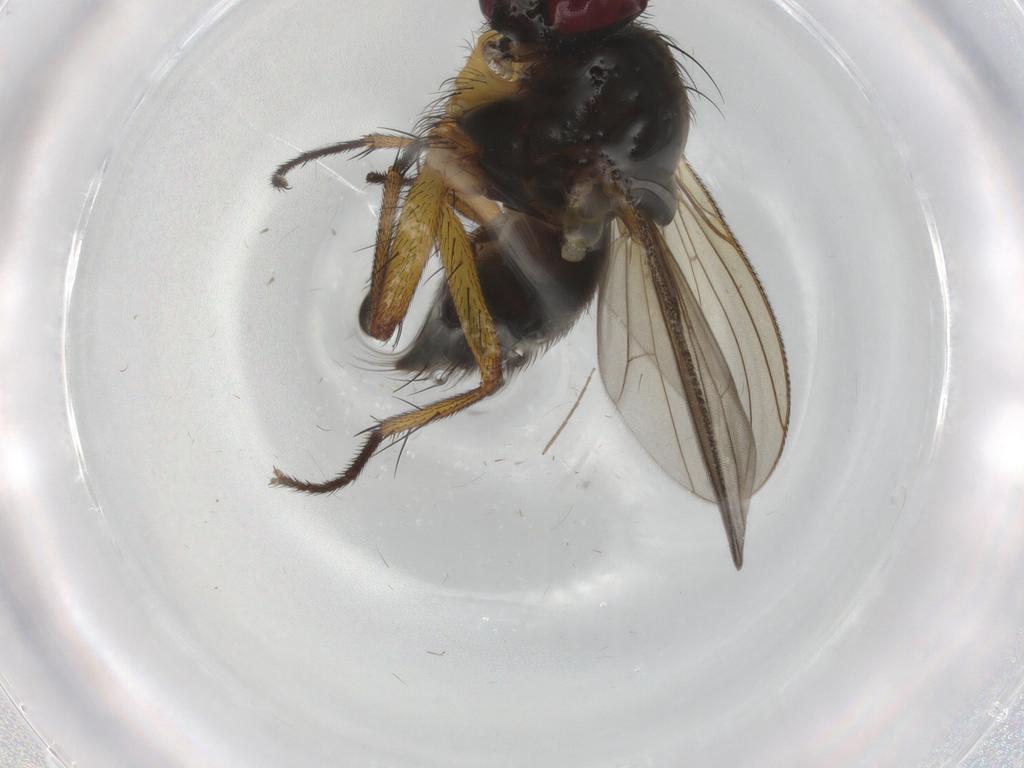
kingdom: Animalia
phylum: Arthropoda
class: Insecta
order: Diptera
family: Muscidae
